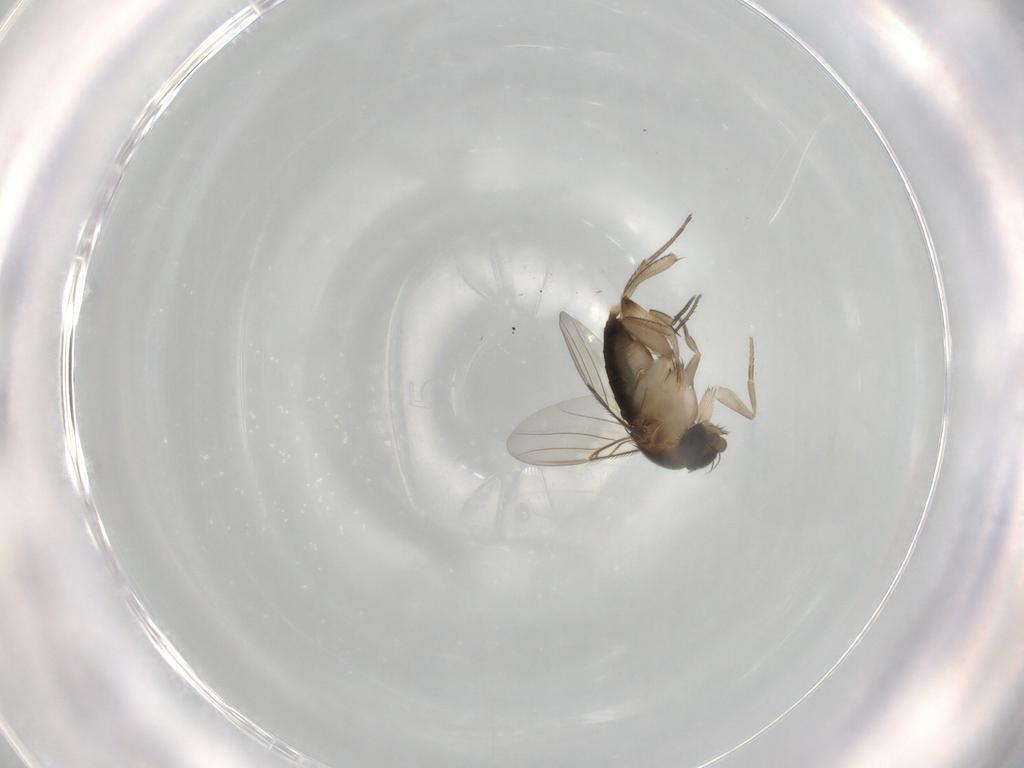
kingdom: Animalia
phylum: Arthropoda
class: Insecta
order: Diptera
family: Phoridae
